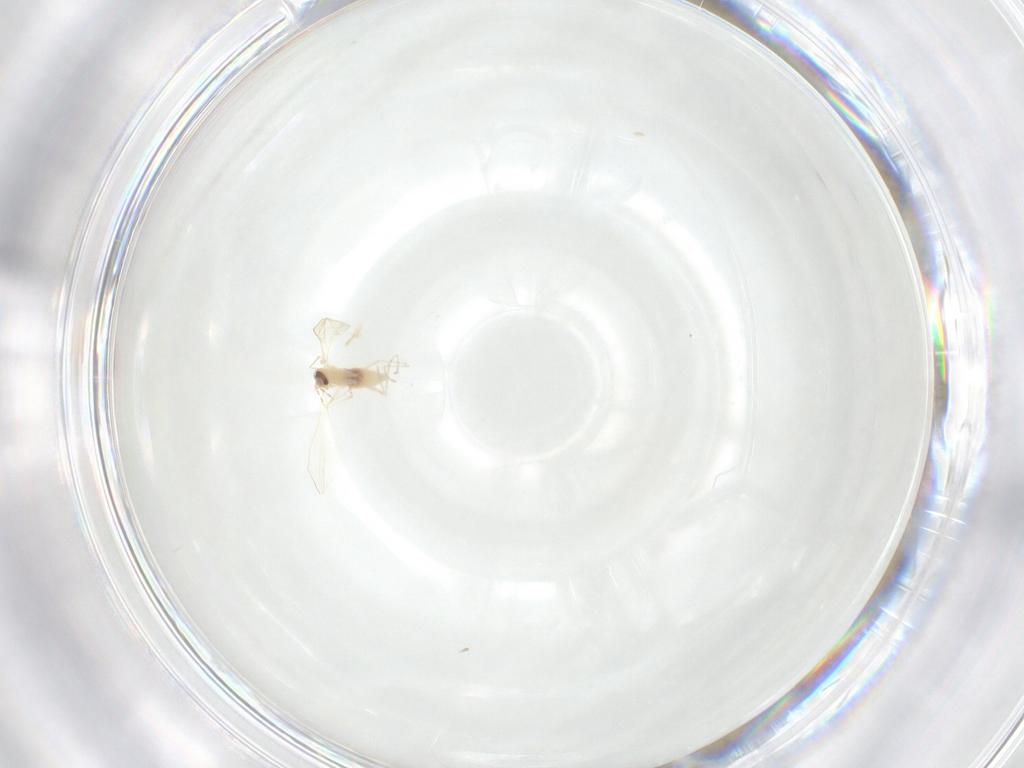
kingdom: Animalia
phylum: Arthropoda
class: Insecta
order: Diptera
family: Cecidomyiidae
